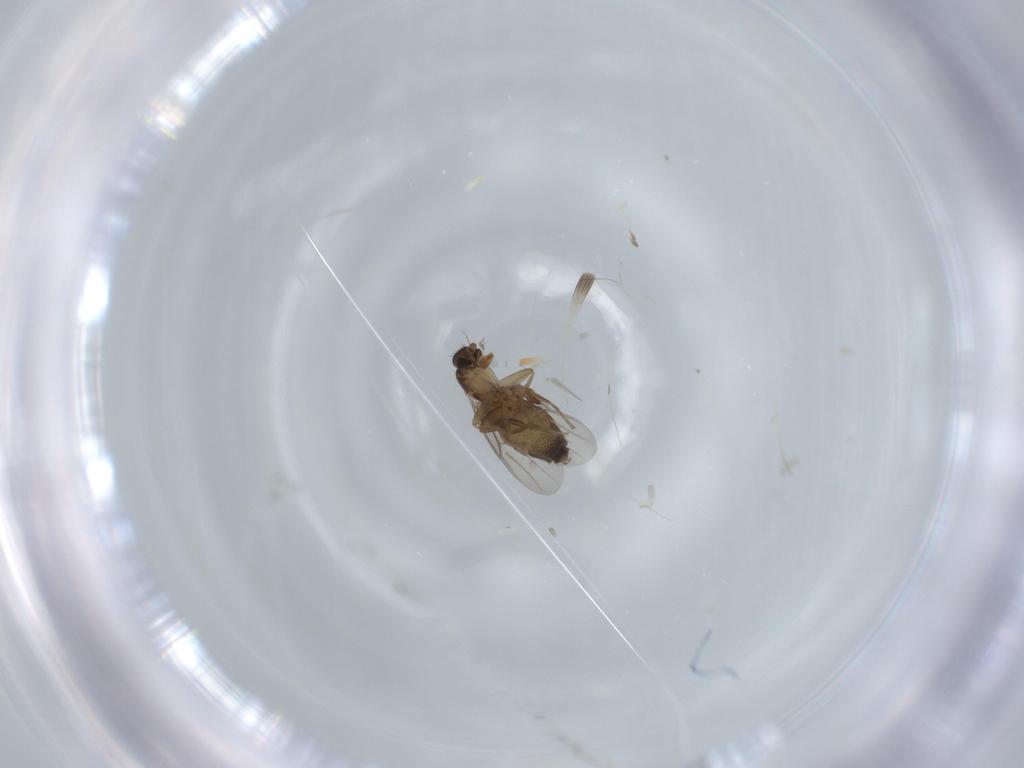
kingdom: Animalia
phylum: Arthropoda
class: Insecta
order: Diptera
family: Phoridae
